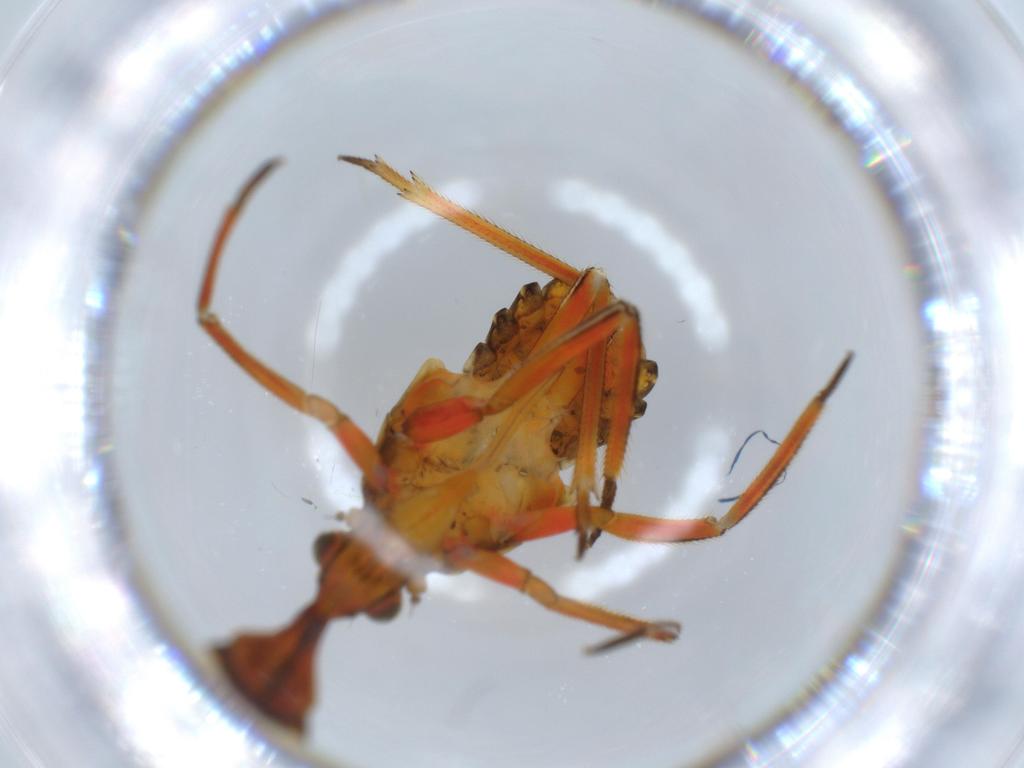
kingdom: Animalia
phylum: Arthropoda
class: Insecta
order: Hemiptera
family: Fulgoridae
